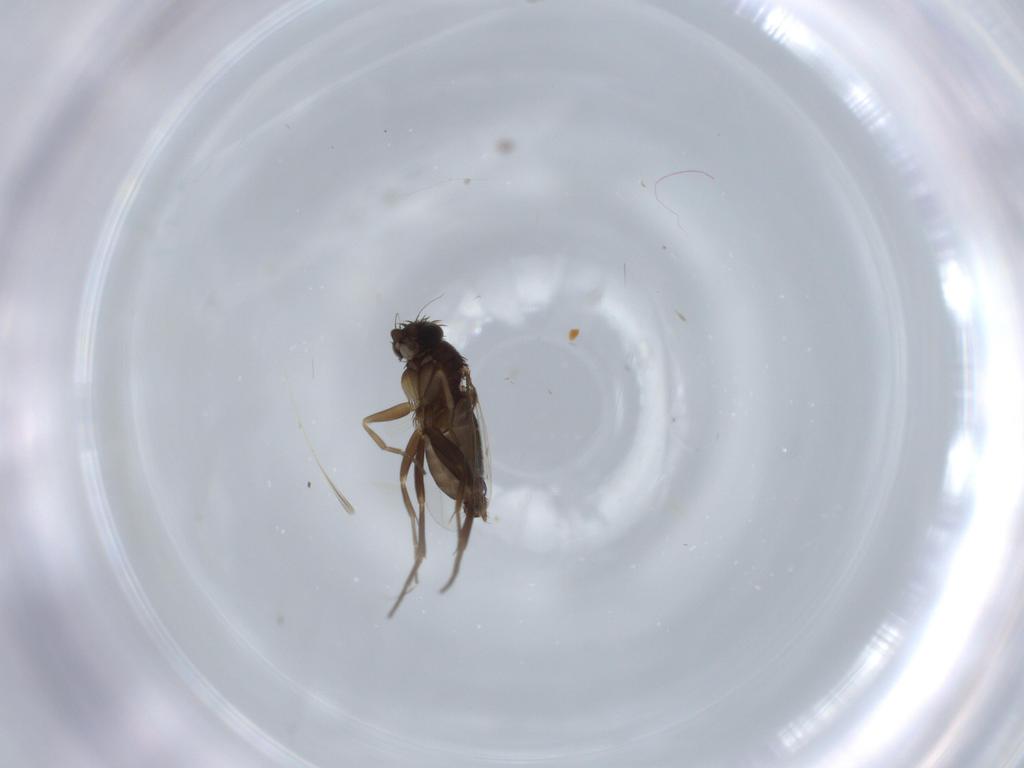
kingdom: Animalia
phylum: Arthropoda
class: Insecta
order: Diptera
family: Phoridae
